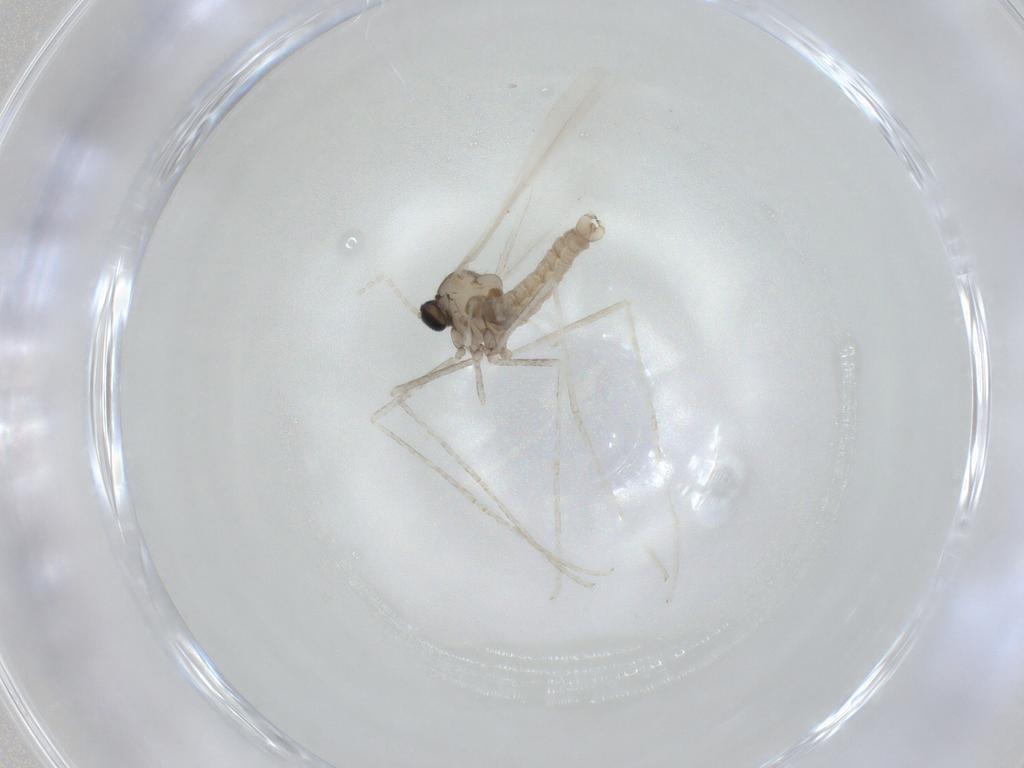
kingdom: Animalia
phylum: Arthropoda
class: Insecta
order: Diptera
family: Cecidomyiidae
